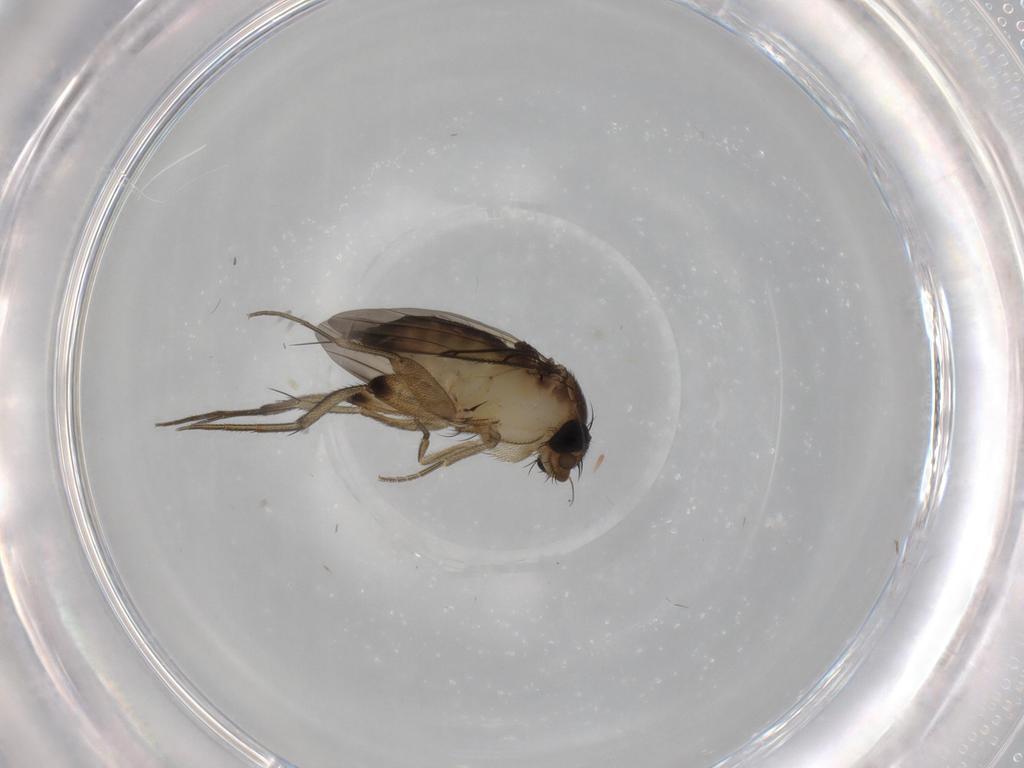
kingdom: Animalia
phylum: Arthropoda
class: Insecta
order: Diptera
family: Phoridae
